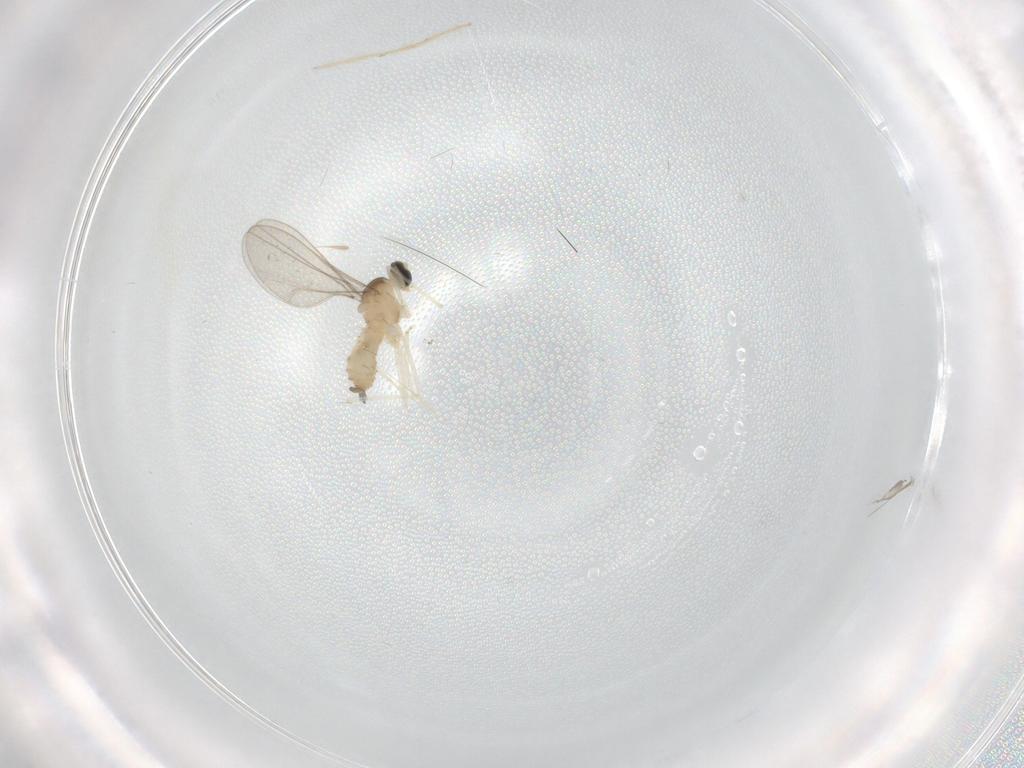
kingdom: Animalia
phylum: Arthropoda
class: Insecta
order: Diptera
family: Cecidomyiidae
